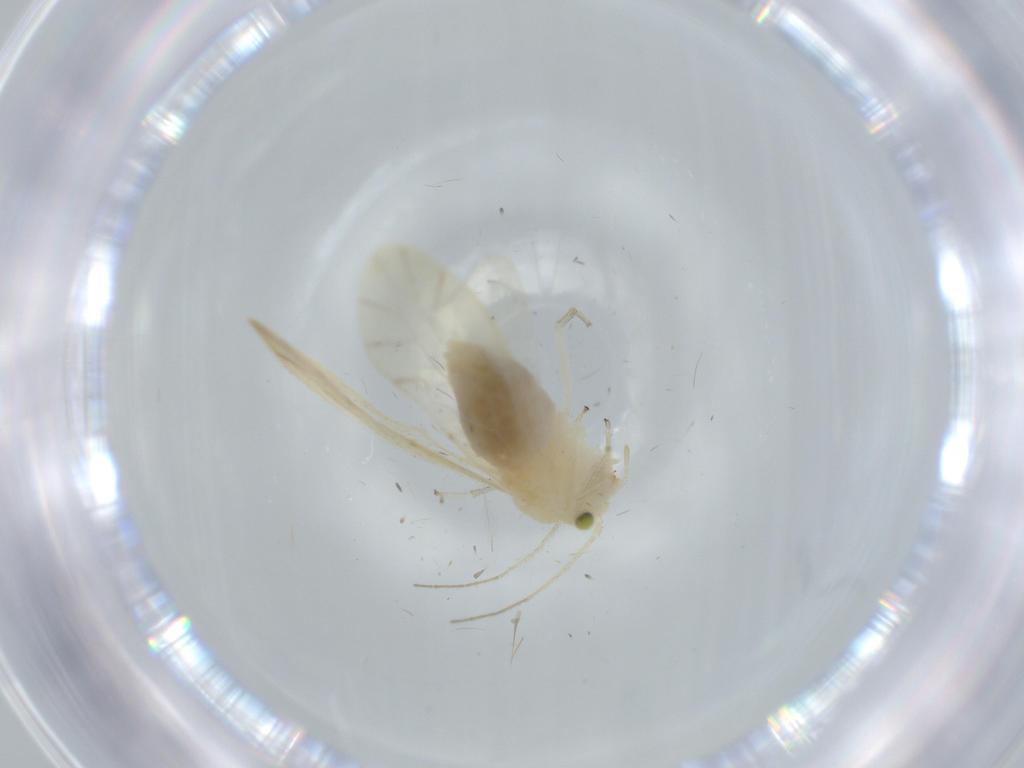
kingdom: Animalia
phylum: Arthropoda
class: Insecta
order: Psocodea
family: Caeciliusidae
